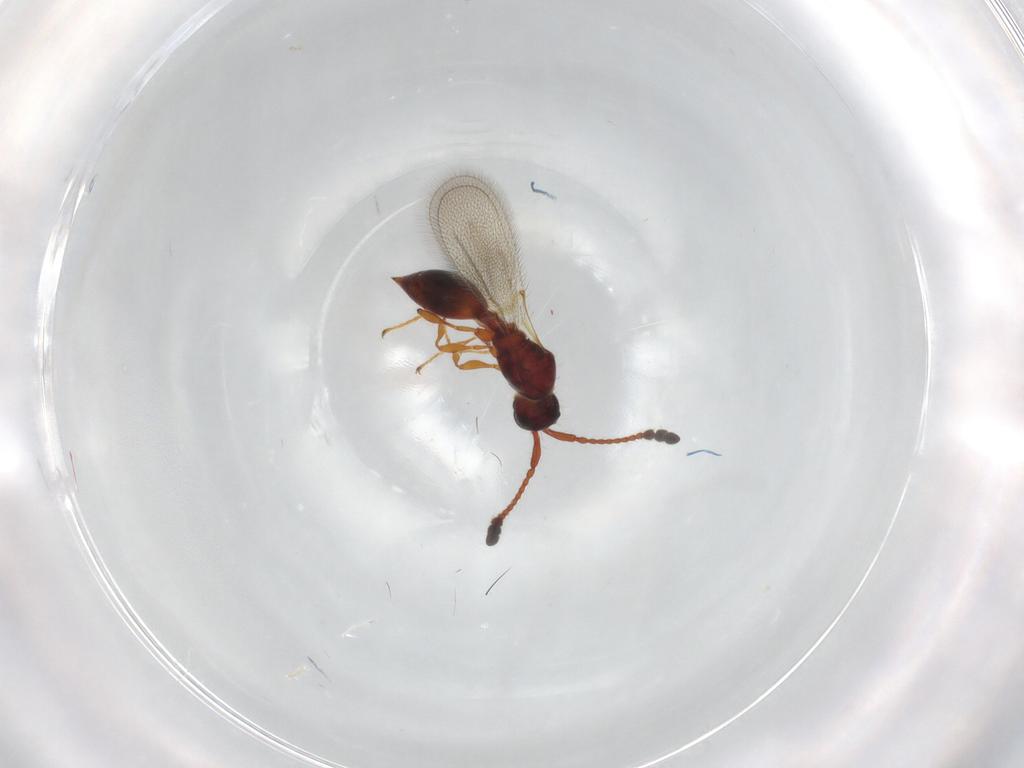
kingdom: Animalia
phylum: Arthropoda
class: Insecta
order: Hymenoptera
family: Diapriidae
